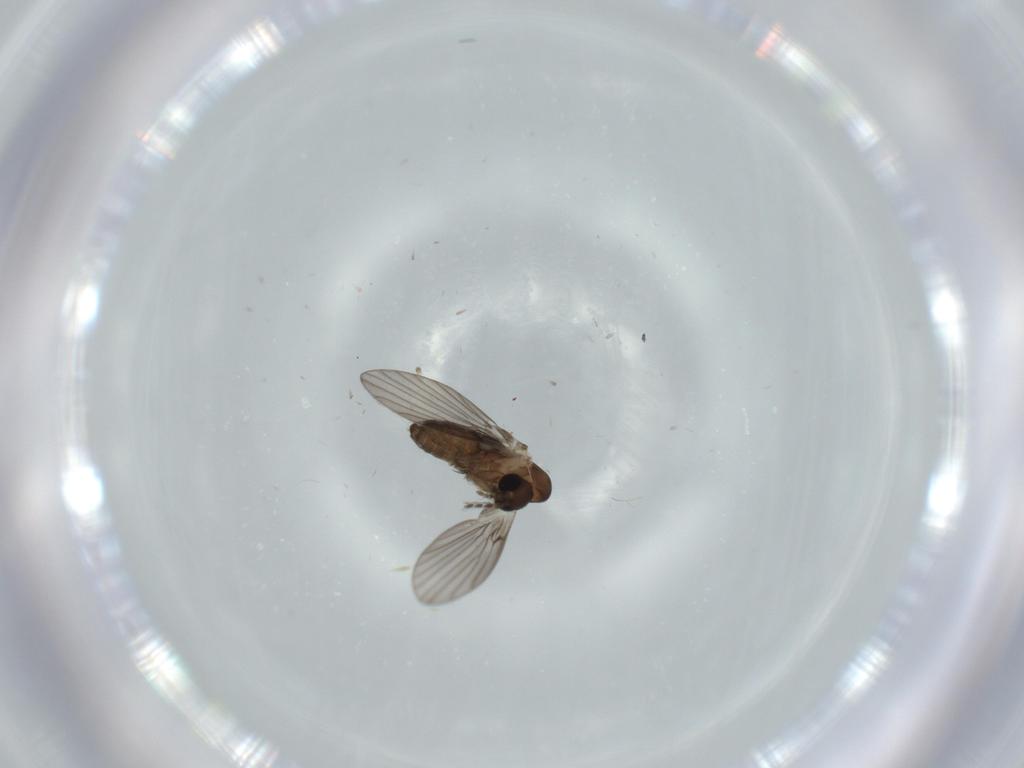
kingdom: Animalia
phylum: Arthropoda
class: Insecta
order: Diptera
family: Sciaridae
